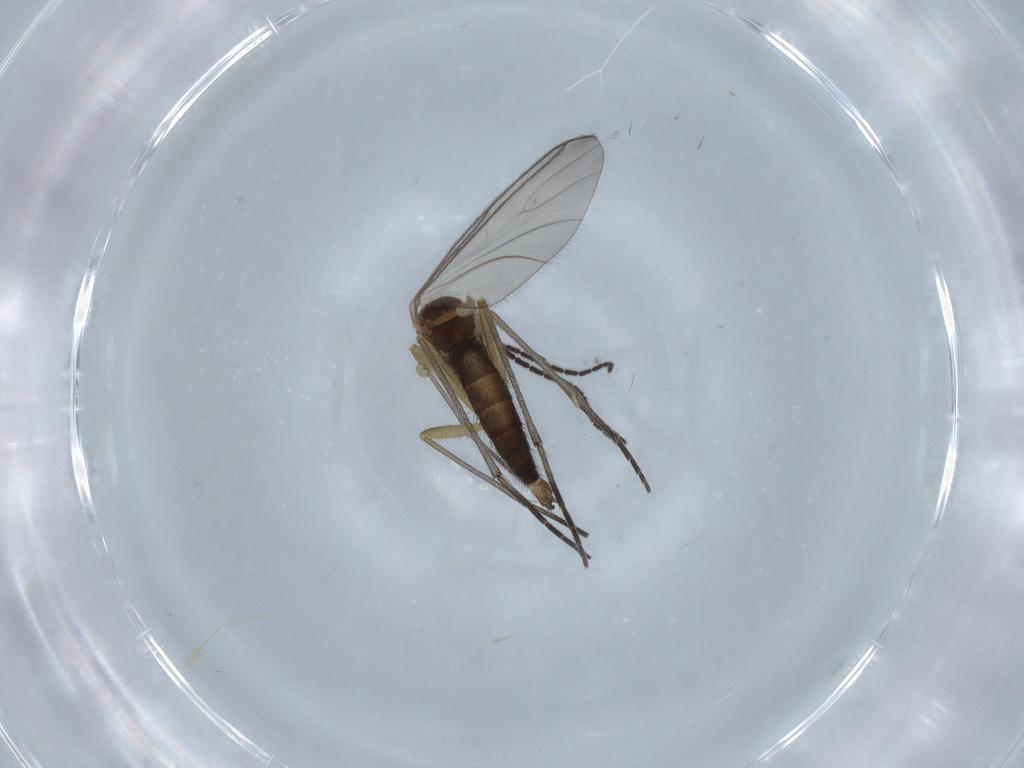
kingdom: Animalia
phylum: Arthropoda
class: Insecta
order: Diptera
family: Sciaridae
